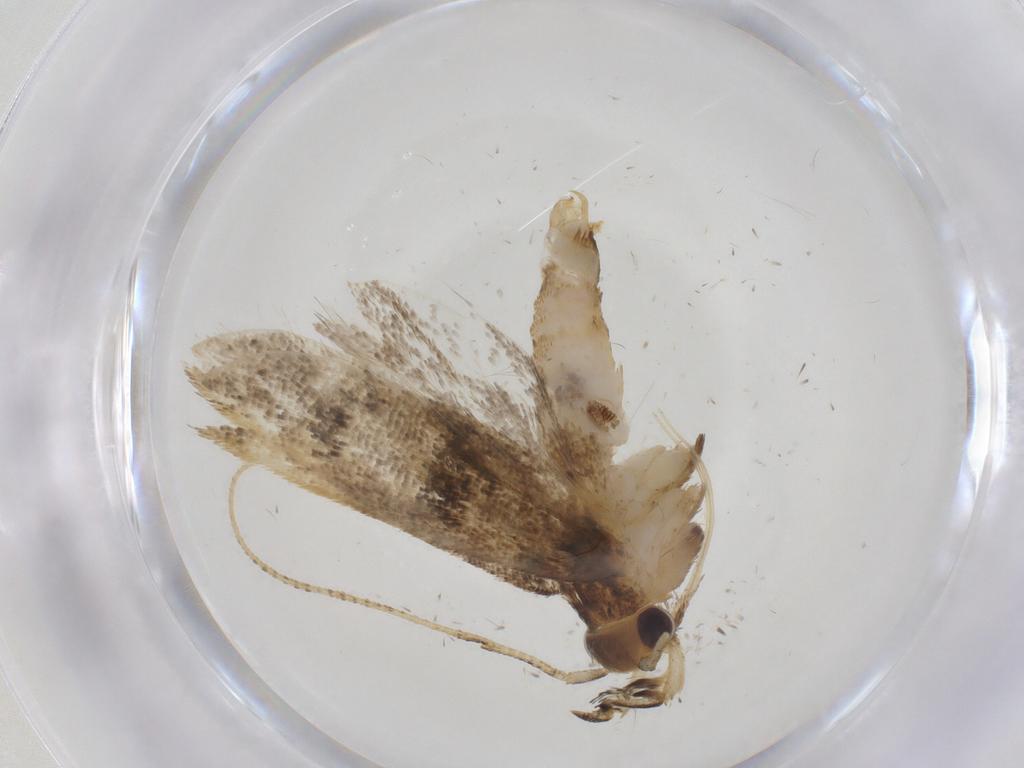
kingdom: Animalia
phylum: Arthropoda
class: Insecta
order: Lepidoptera
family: Lecithoceridae
